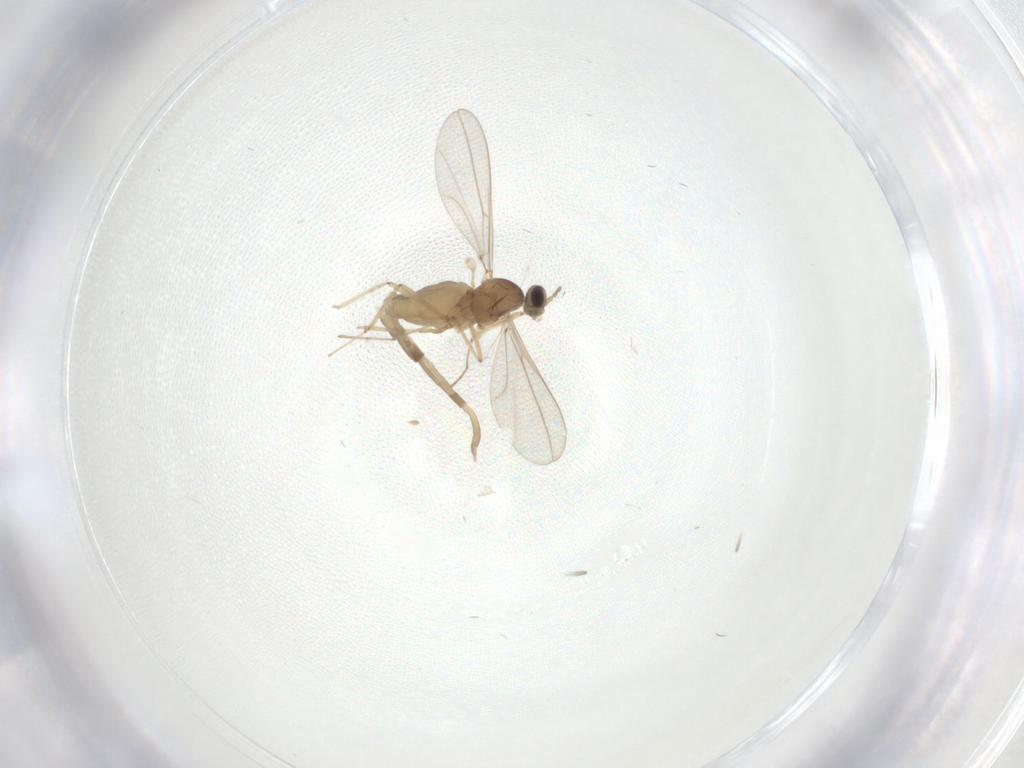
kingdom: Animalia
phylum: Arthropoda
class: Insecta
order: Diptera
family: Cecidomyiidae
